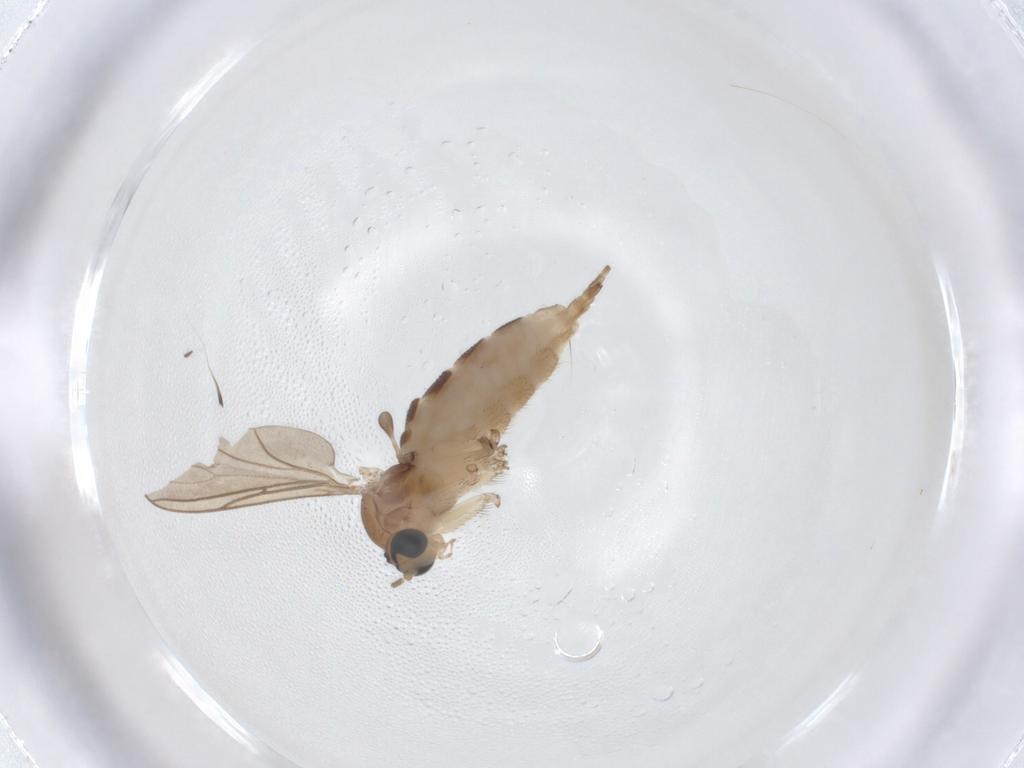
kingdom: Animalia
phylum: Arthropoda
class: Insecta
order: Diptera
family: Sciaridae
